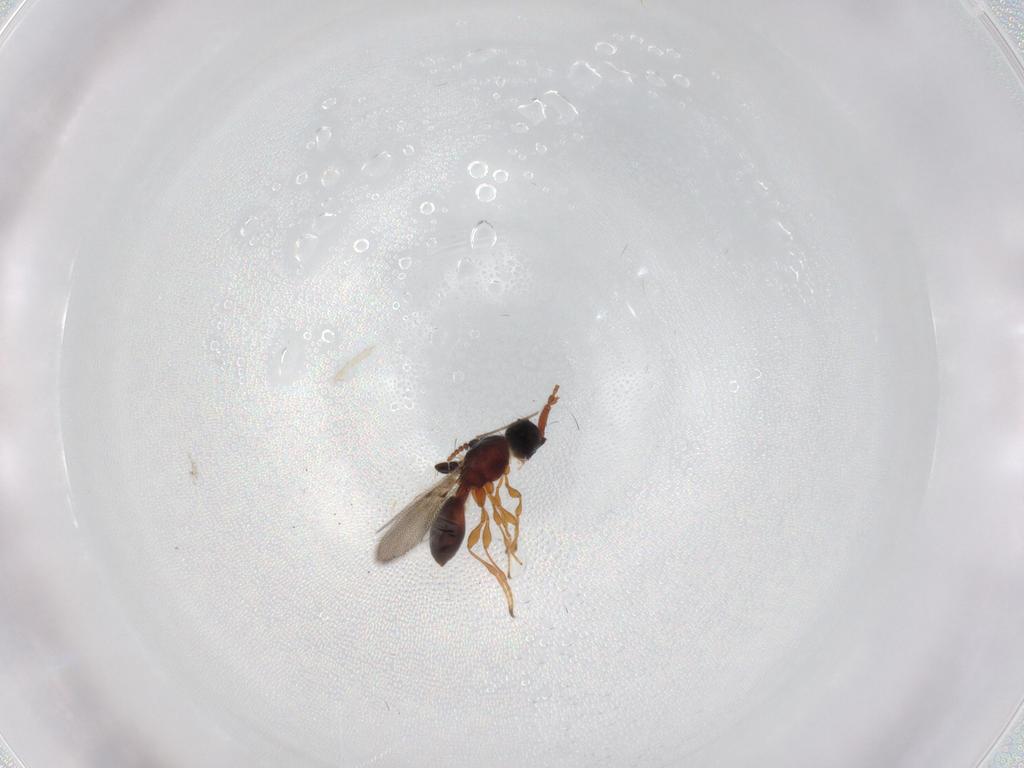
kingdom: Animalia
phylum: Arthropoda
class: Insecta
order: Hymenoptera
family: Diapriidae
